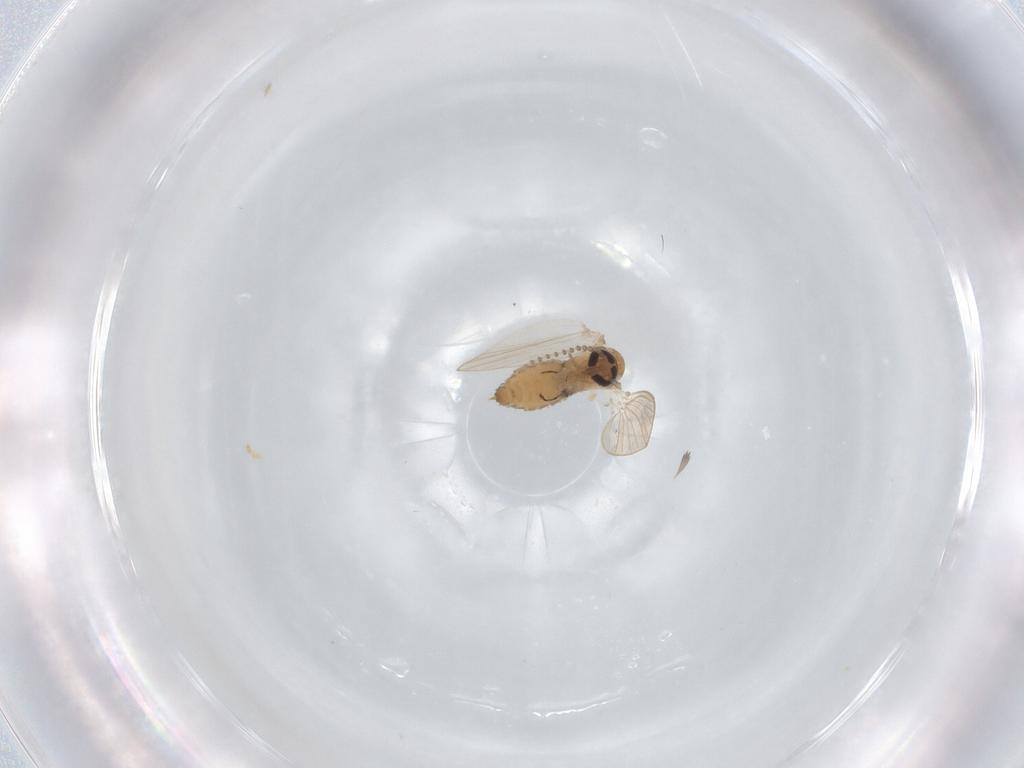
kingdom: Animalia
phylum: Arthropoda
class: Insecta
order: Diptera
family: Psychodidae
